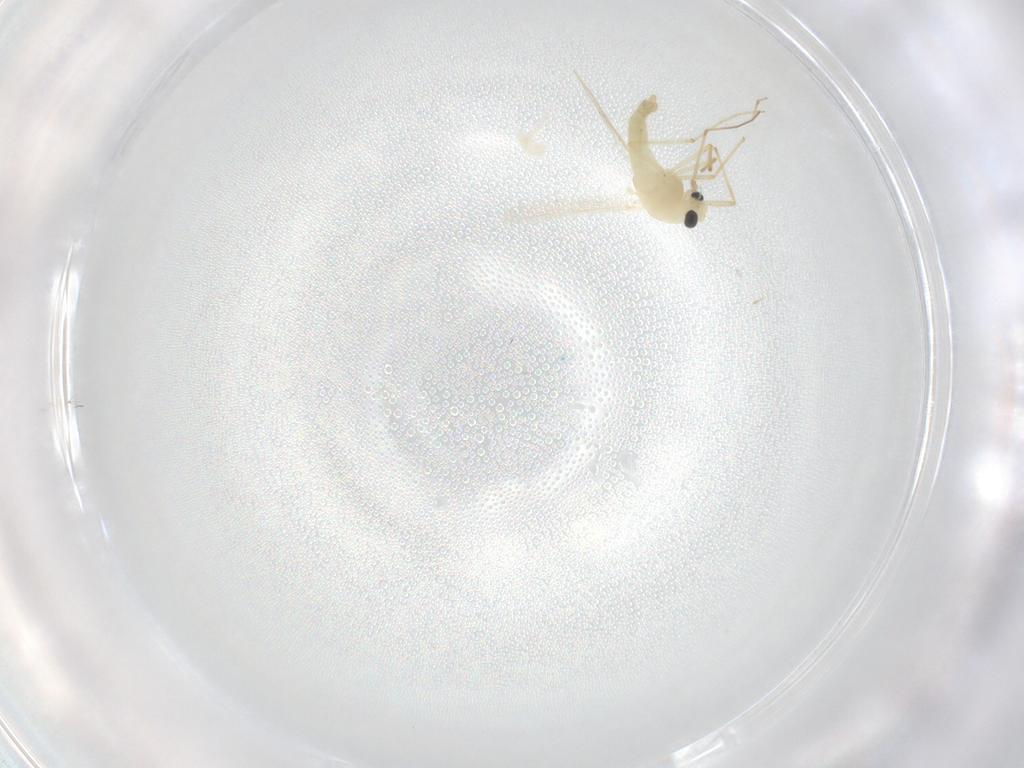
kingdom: Animalia
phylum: Arthropoda
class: Insecta
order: Diptera
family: Chironomidae
